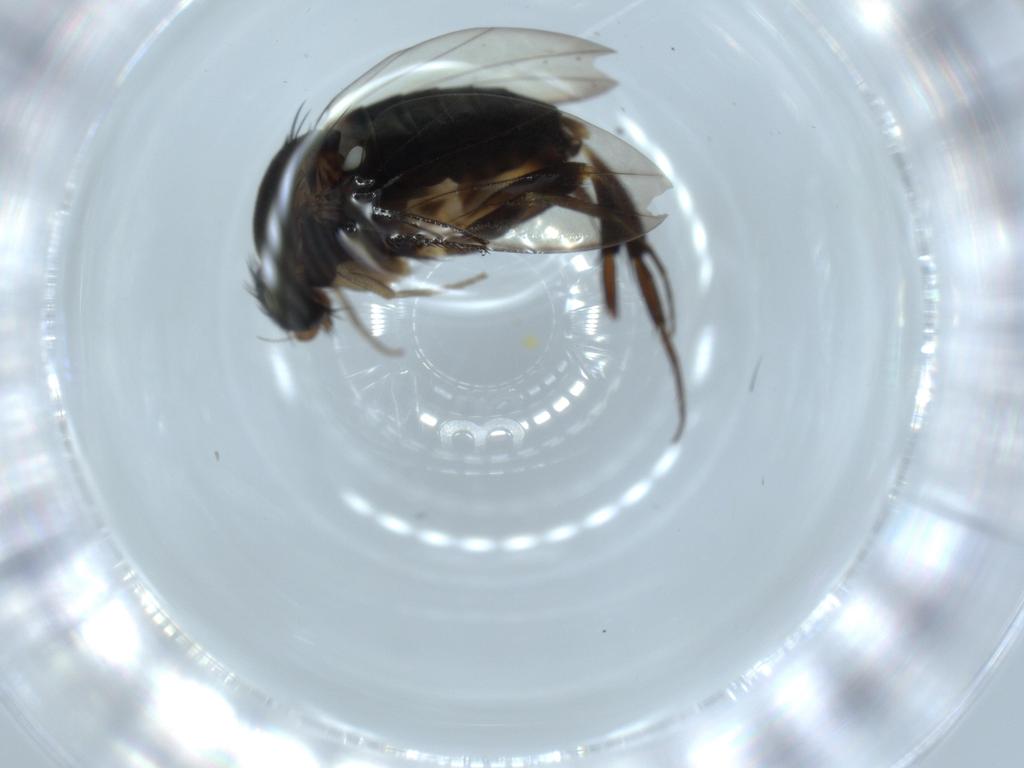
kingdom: Animalia
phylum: Arthropoda
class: Insecta
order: Diptera
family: Phoridae
